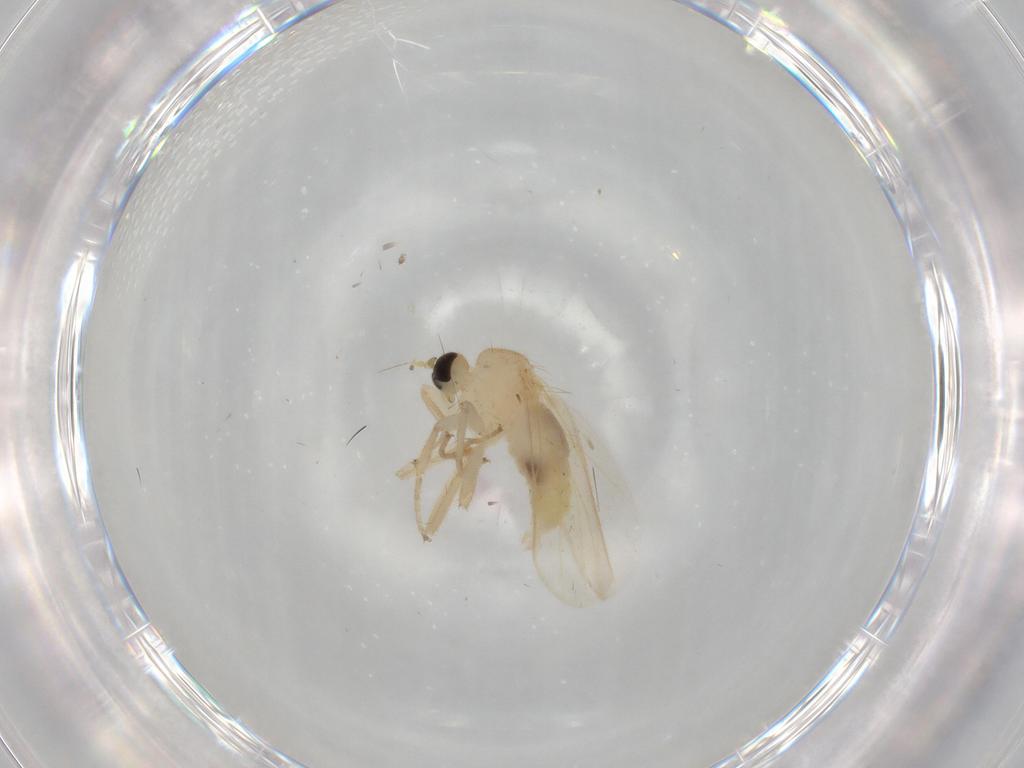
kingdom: Animalia
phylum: Arthropoda
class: Insecta
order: Diptera
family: Hybotidae
